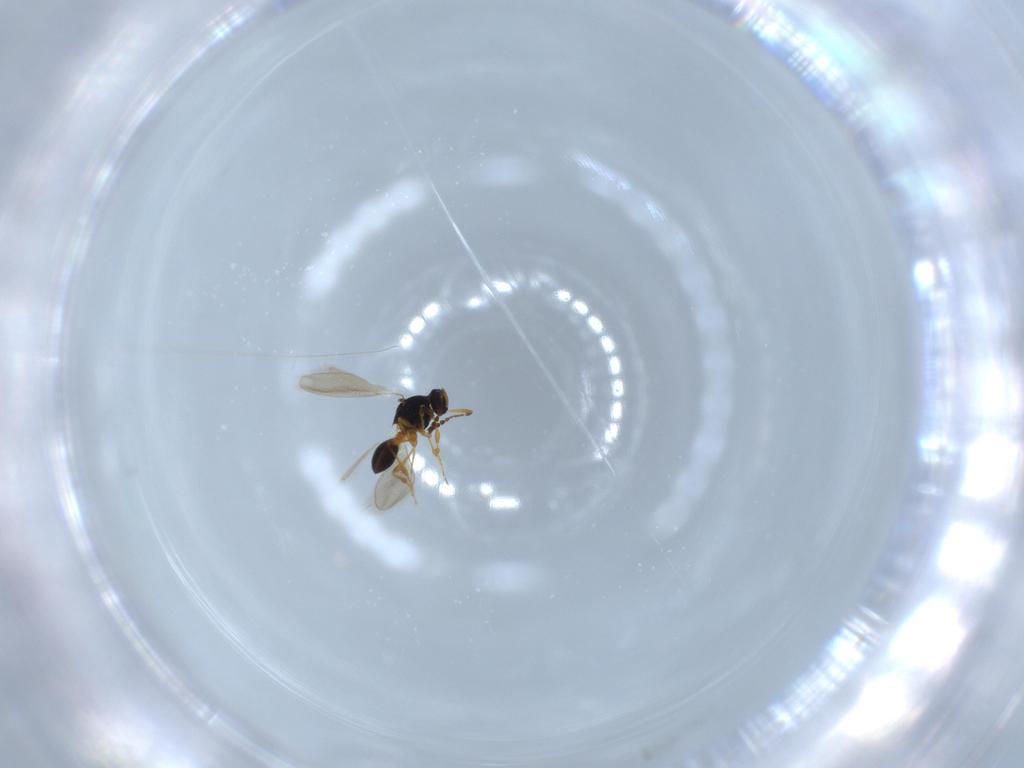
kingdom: Animalia
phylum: Arthropoda
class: Insecta
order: Hymenoptera
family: Platygastridae
